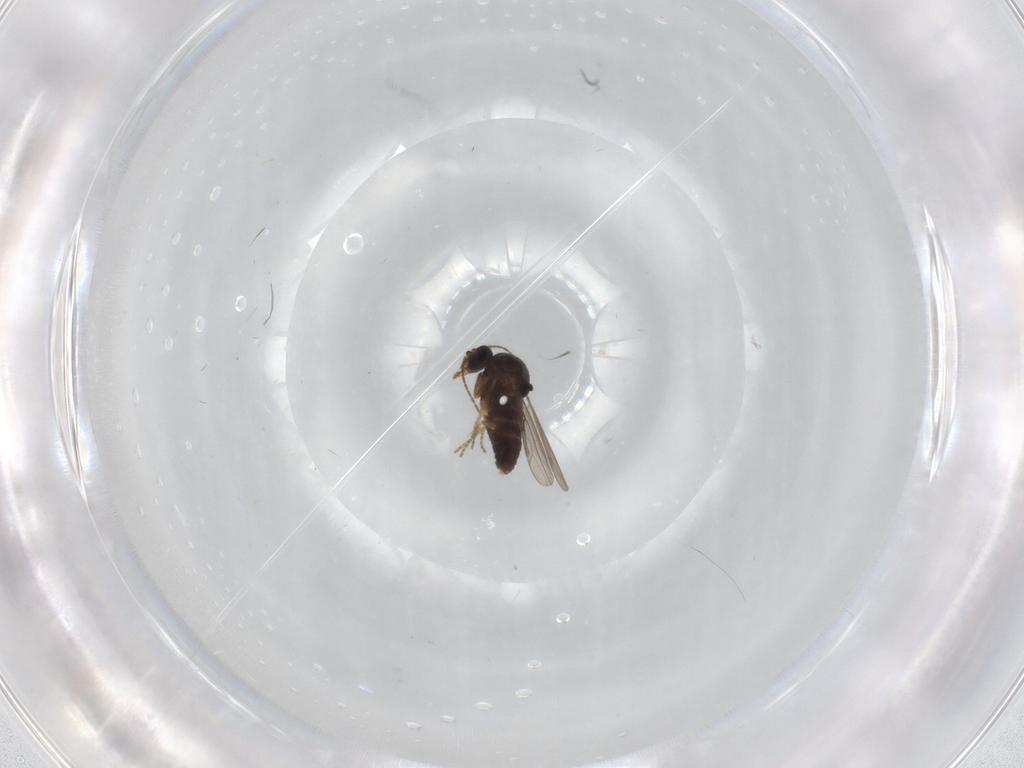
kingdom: Animalia
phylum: Arthropoda
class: Insecta
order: Diptera
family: Ceratopogonidae
